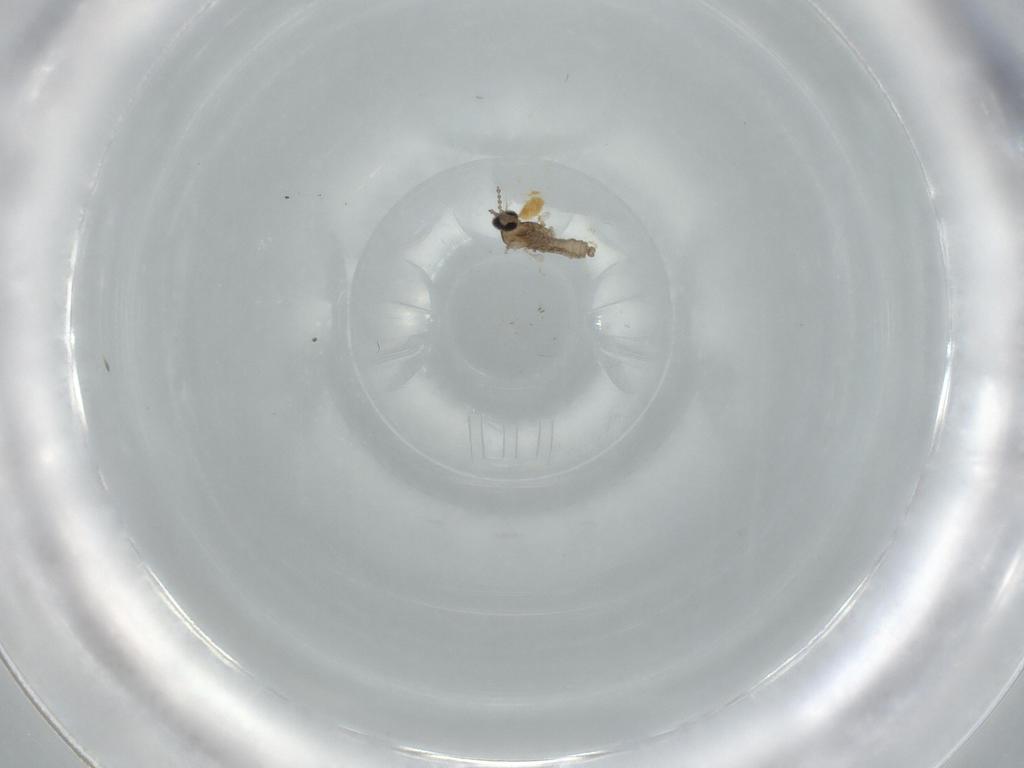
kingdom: Animalia
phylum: Arthropoda
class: Insecta
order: Diptera
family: Cecidomyiidae
